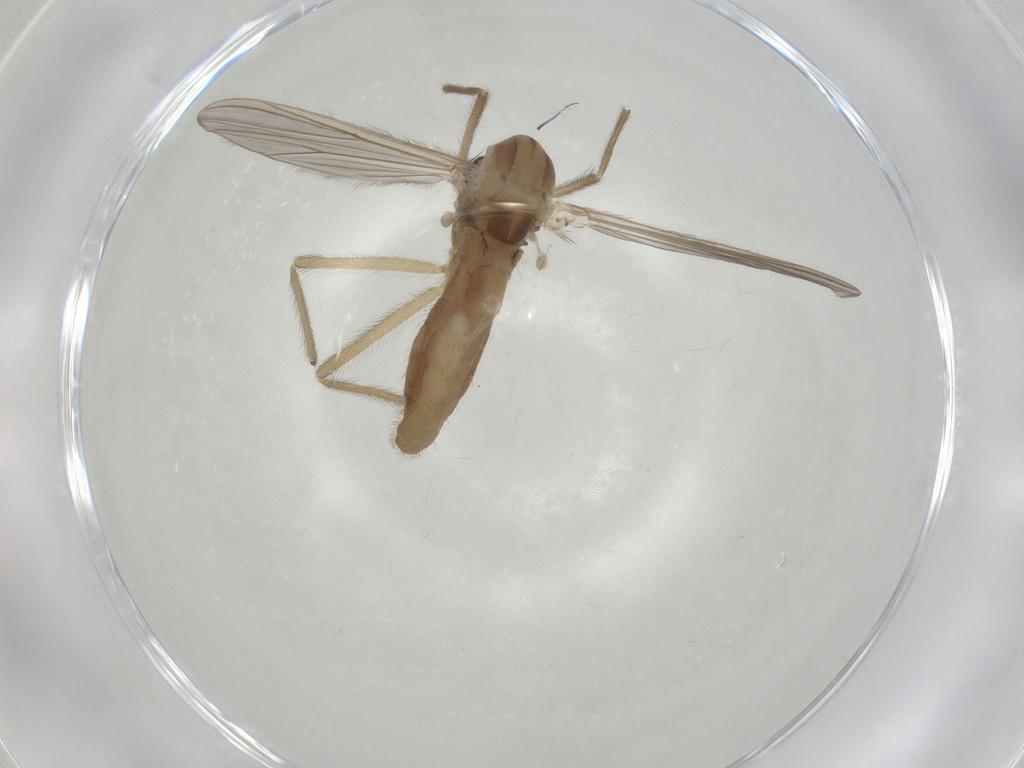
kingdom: Animalia
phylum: Arthropoda
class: Insecta
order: Diptera
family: Chironomidae
